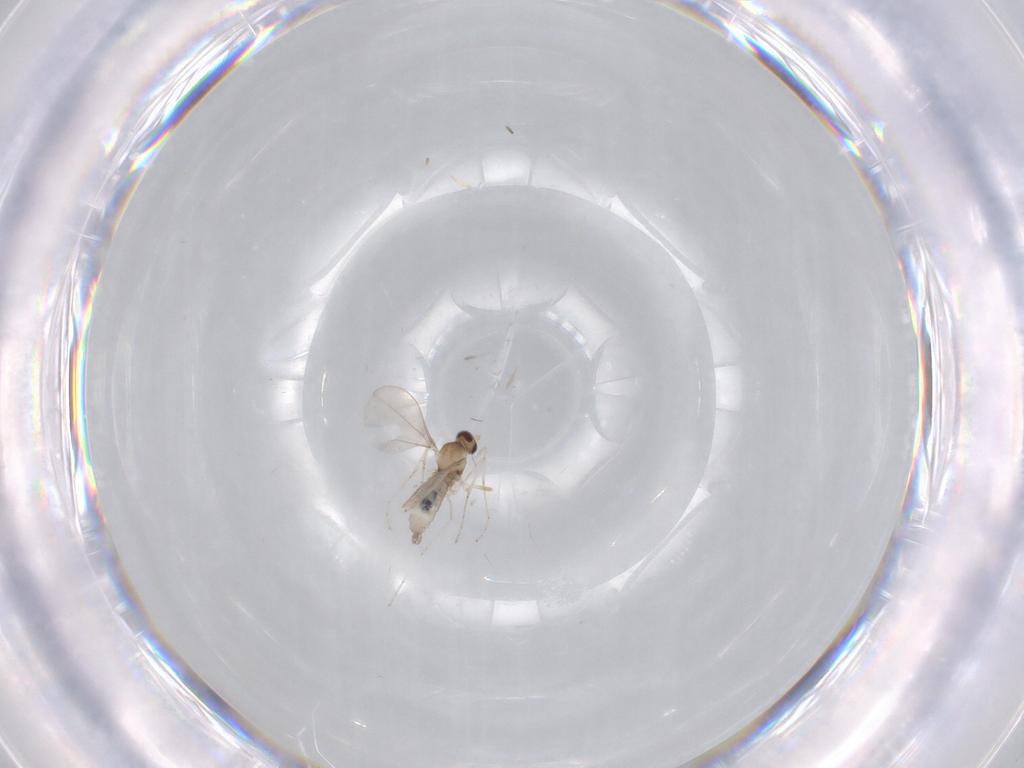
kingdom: Animalia
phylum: Arthropoda
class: Insecta
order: Diptera
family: Cecidomyiidae
